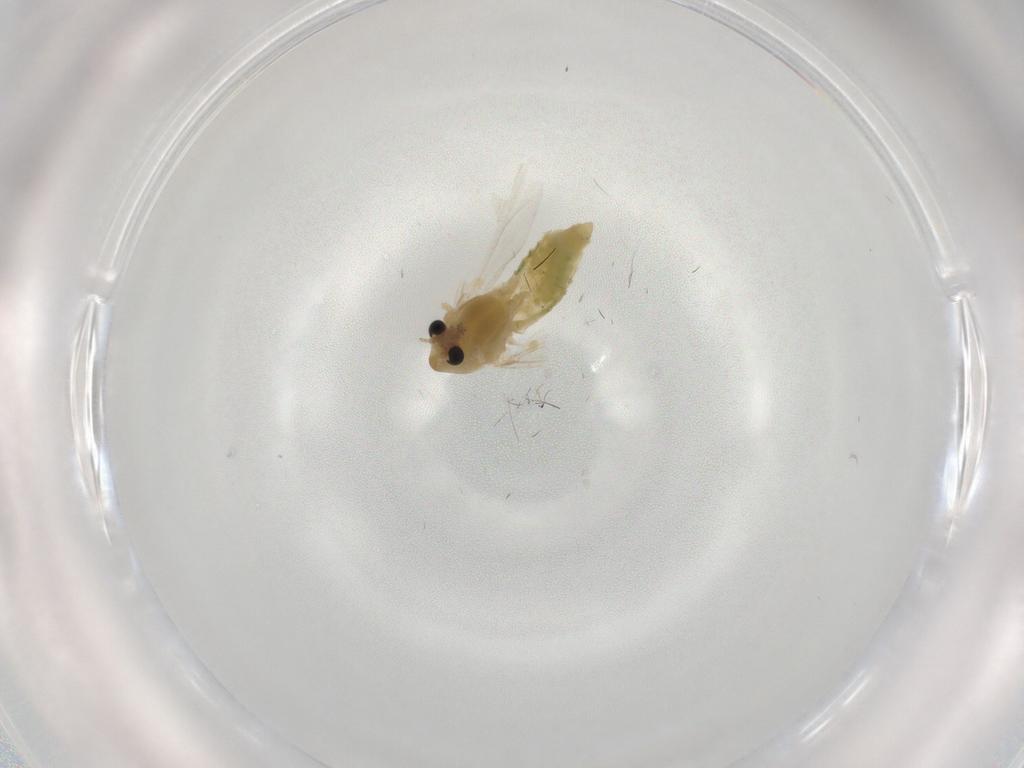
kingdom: Animalia
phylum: Arthropoda
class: Insecta
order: Diptera
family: Chironomidae
